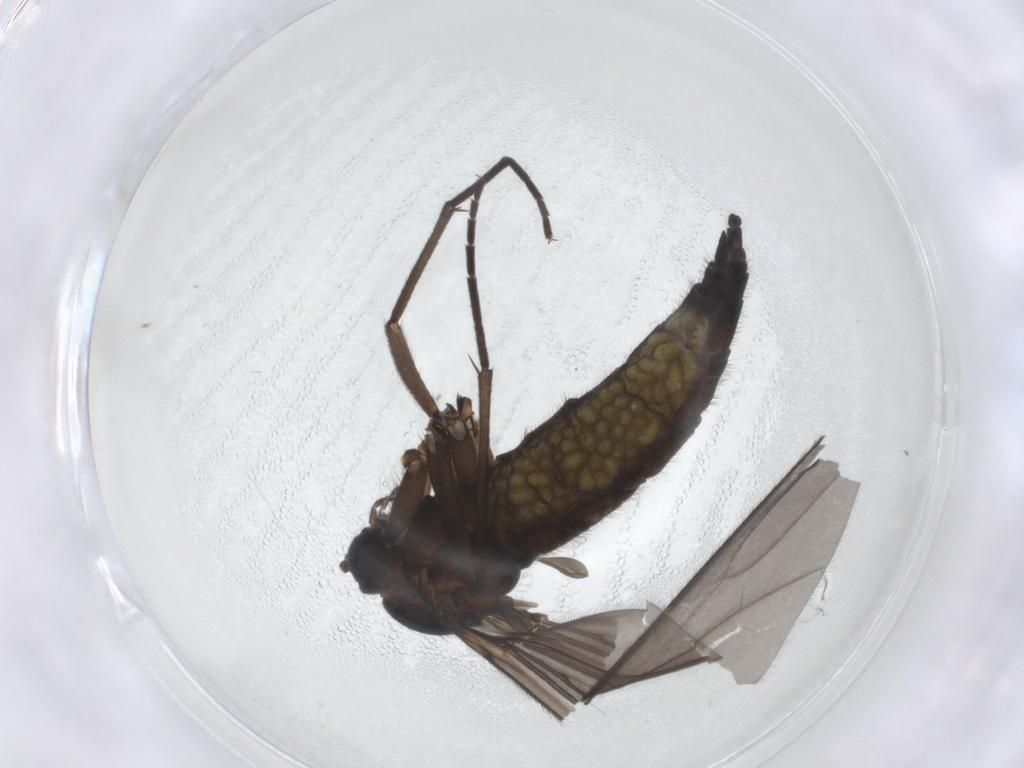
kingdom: Animalia
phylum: Arthropoda
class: Insecta
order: Diptera
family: Sciaridae
